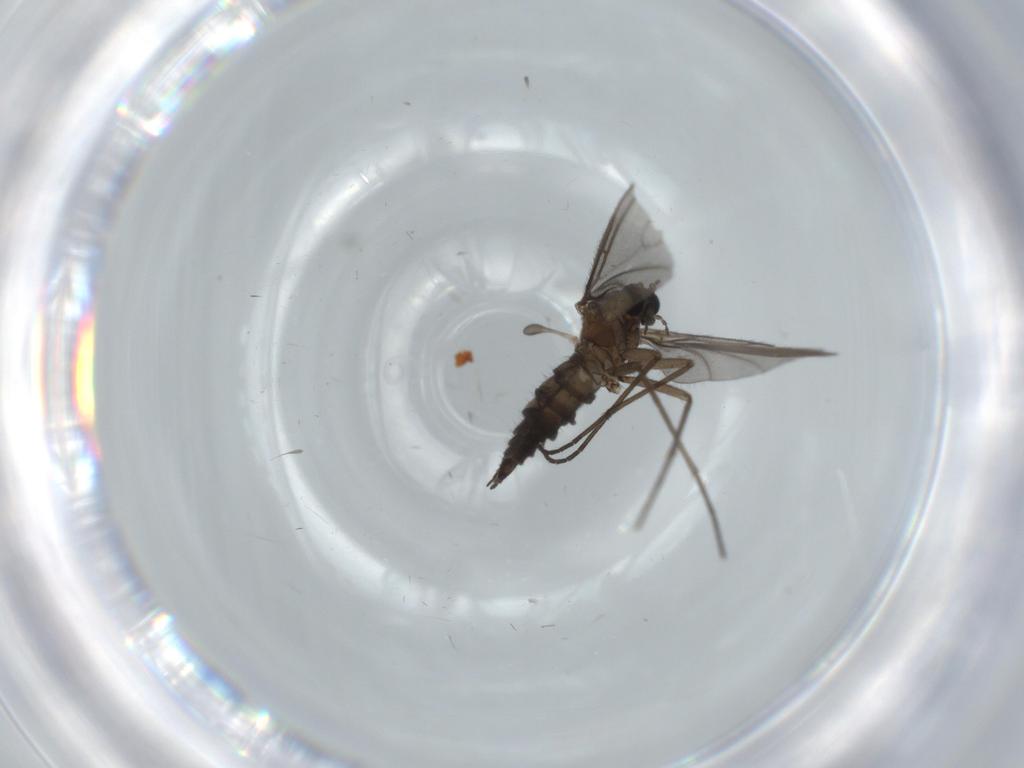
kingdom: Animalia
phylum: Arthropoda
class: Insecta
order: Diptera
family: Sciaridae
